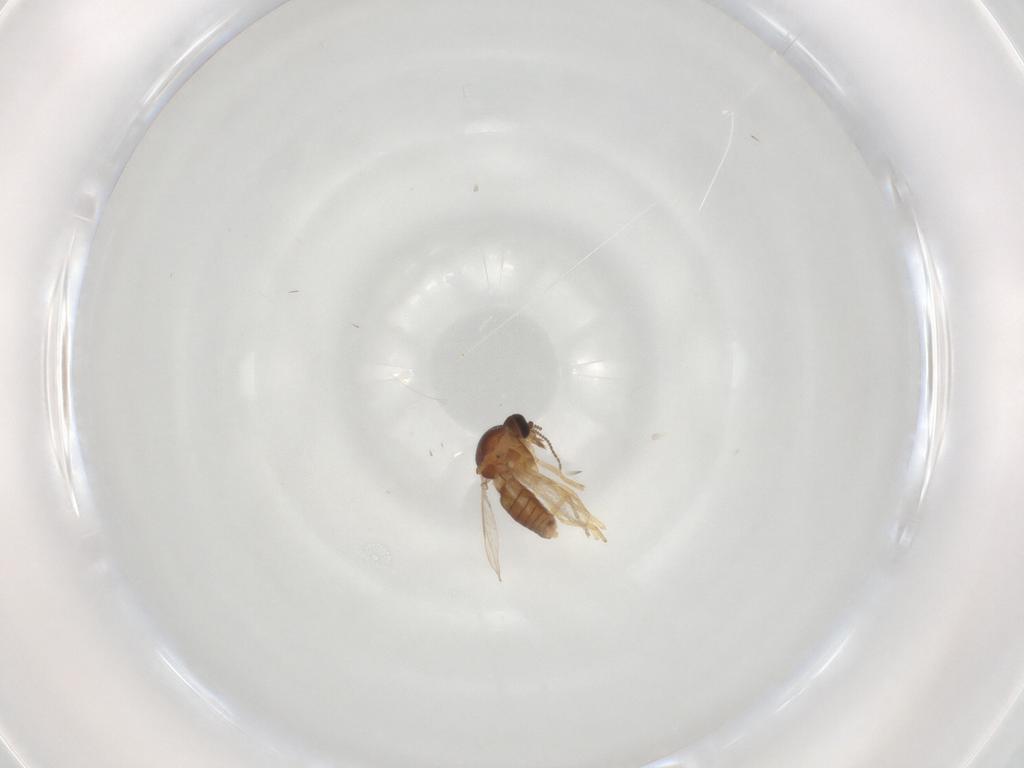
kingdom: Animalia
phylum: Arthropoda
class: Insecta
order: Diptera
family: Ceratopogonidae
